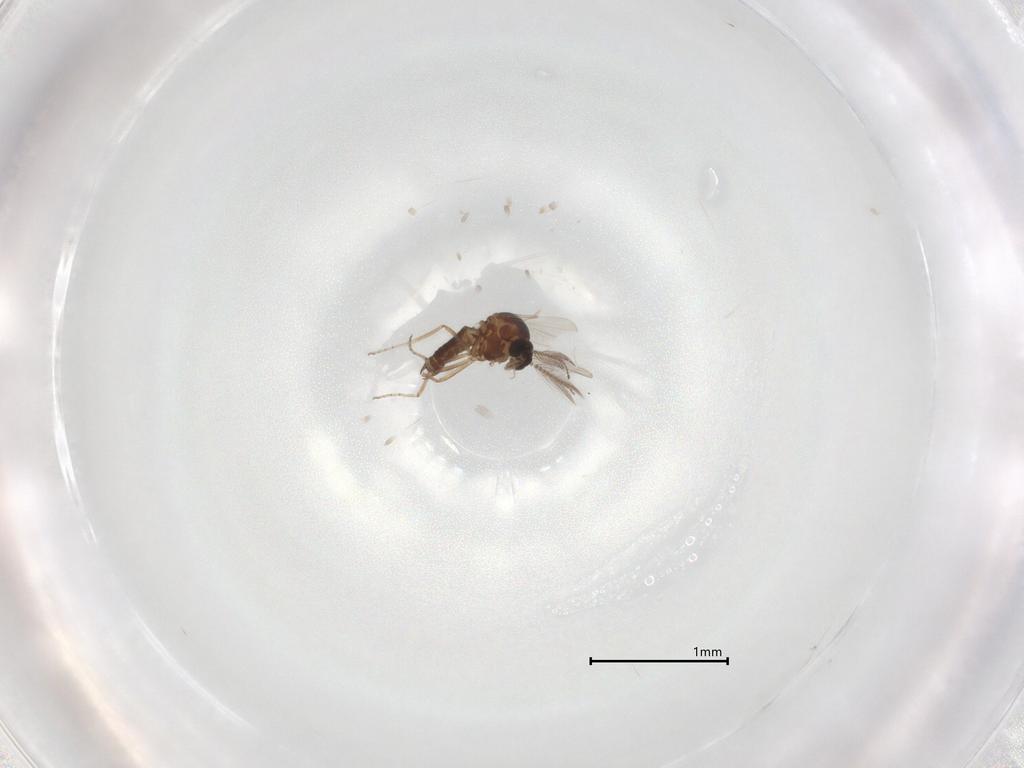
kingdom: Animalia
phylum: Arthropoda
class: Insecta
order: Diptera
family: Ceratopogonidae
